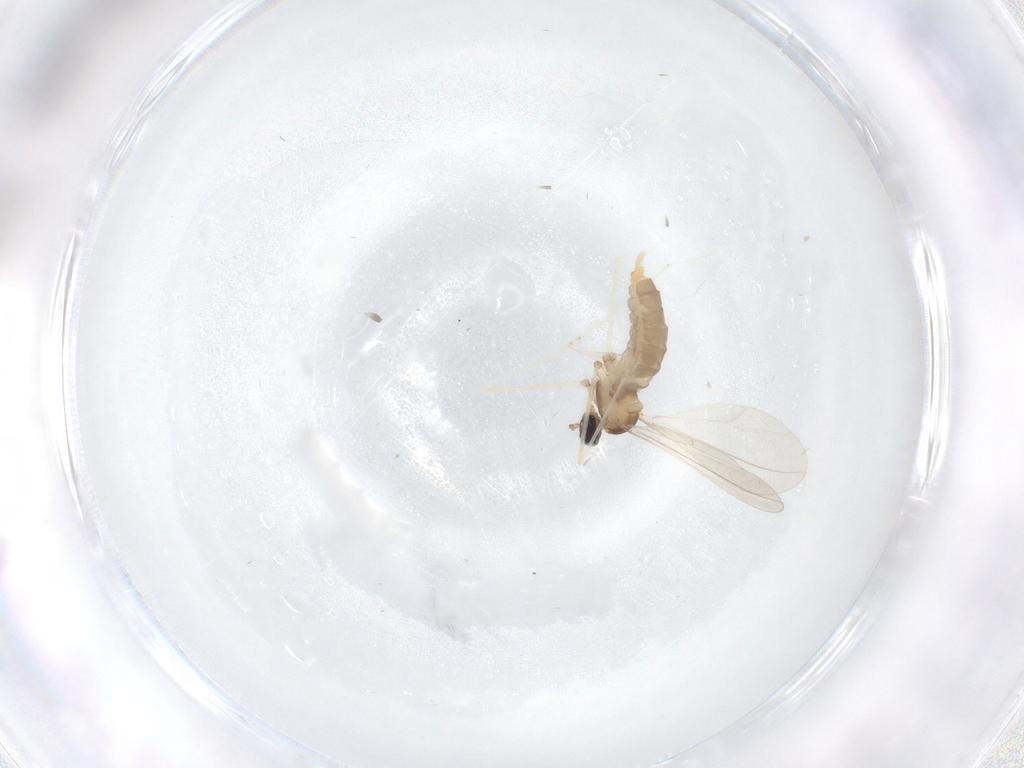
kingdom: Animalia
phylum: Arthropoda
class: Insecta
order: Diptera
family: Cecidomyiidae
